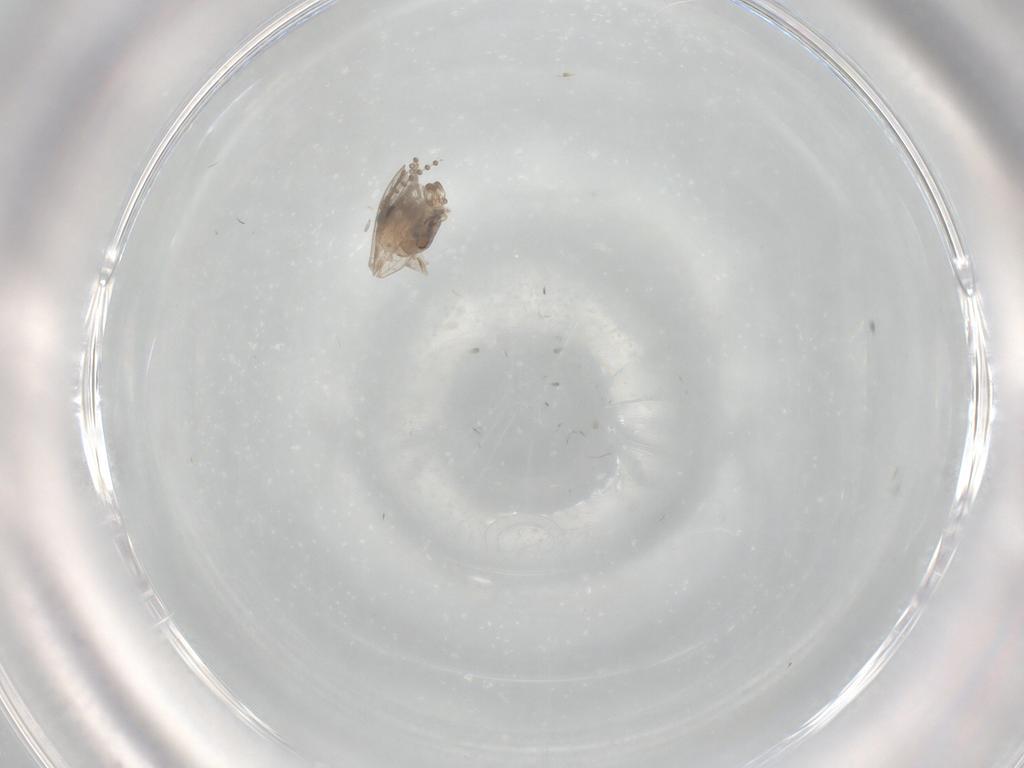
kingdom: Animalia
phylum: Arthropoda
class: Insecta
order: Diptera
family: Psychodidae
